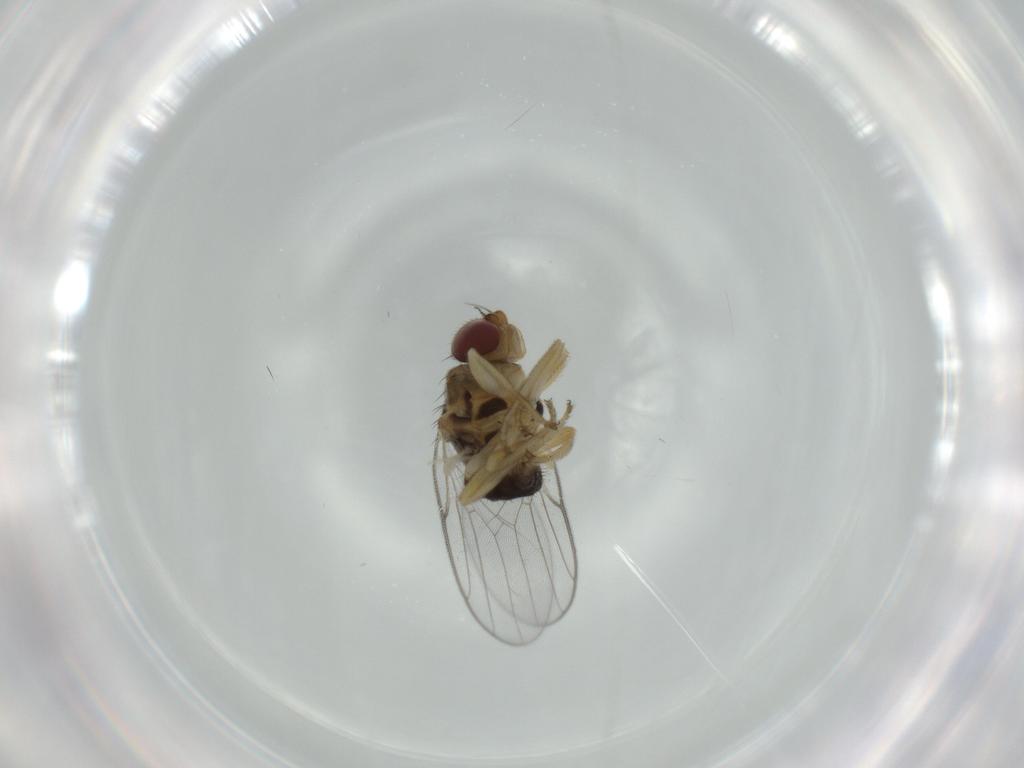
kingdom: Animalia
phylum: Arthropoda
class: Insecta
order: Diptera
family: Chloropidae
